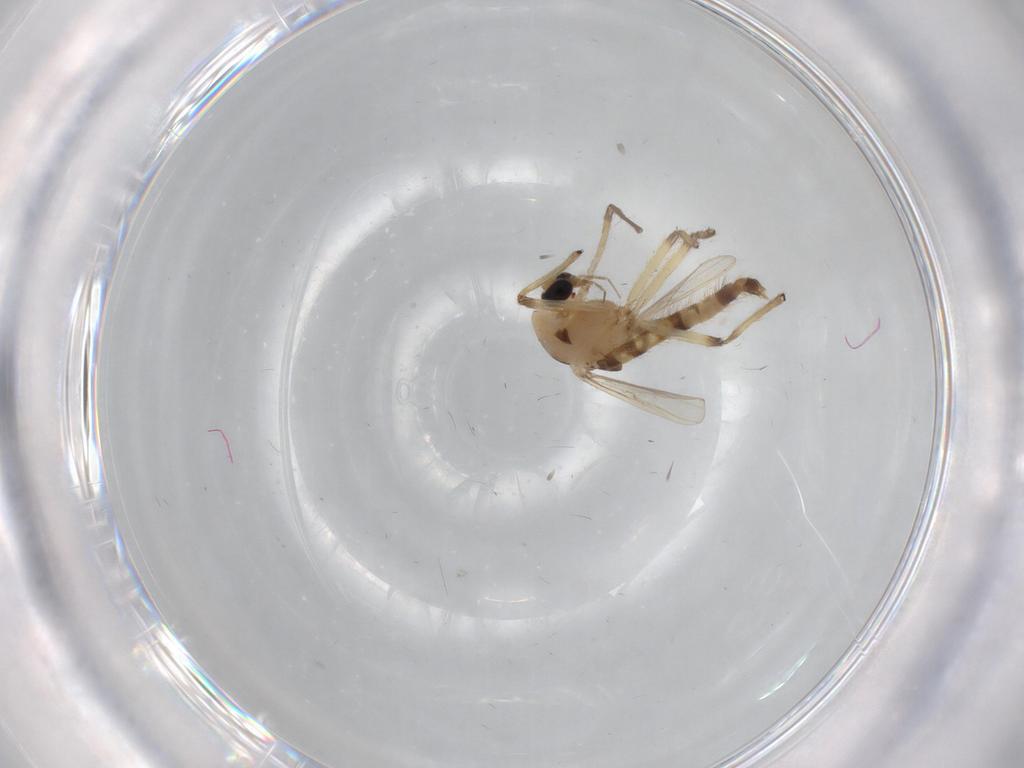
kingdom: Animalia
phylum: Arthropoda
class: Insecta
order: Diptera
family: Chironomidae
